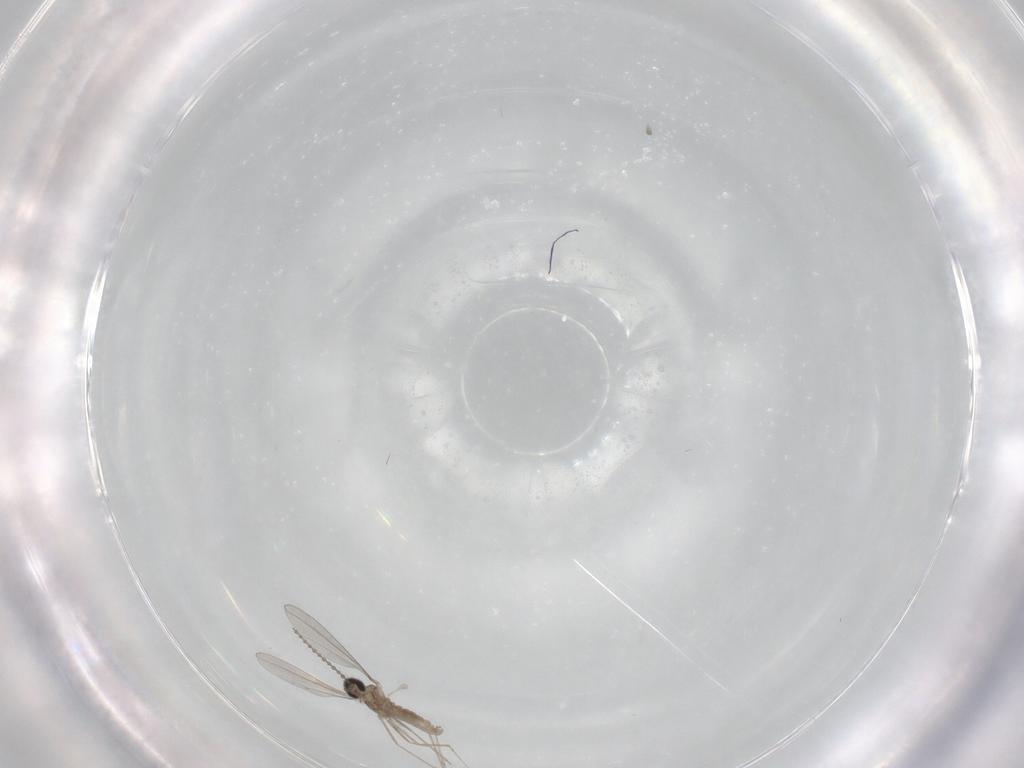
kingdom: Animalia
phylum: Arthropoda
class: Insecta
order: Diptera
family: Cecidomyiidae
